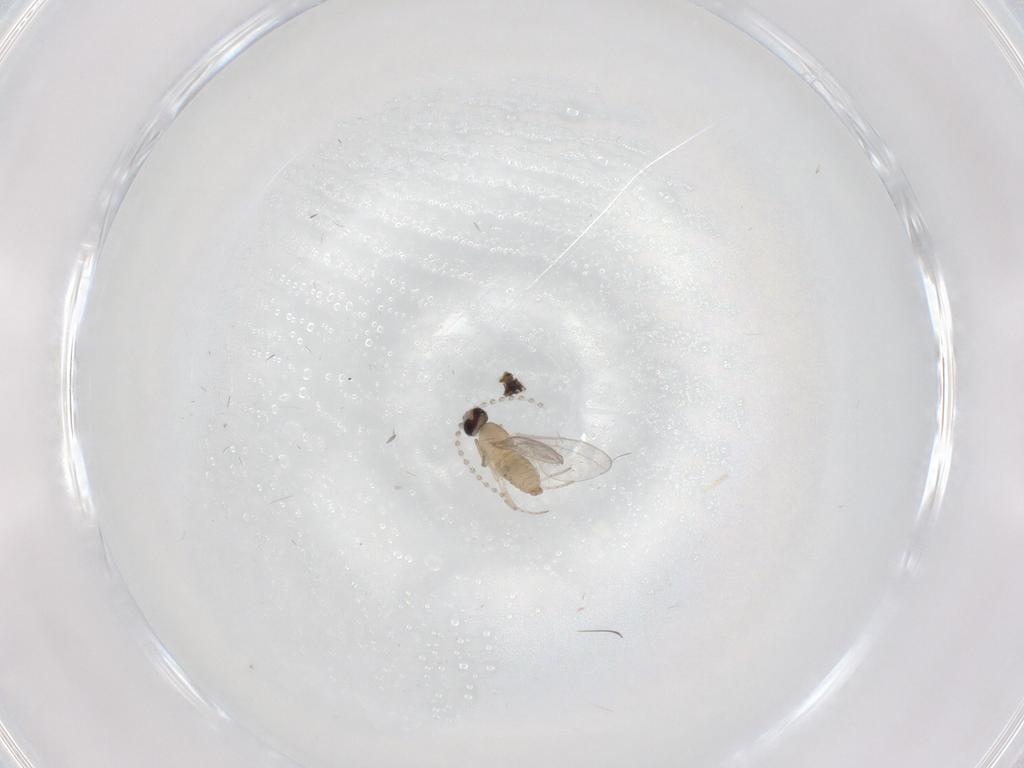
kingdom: Animalia
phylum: Arthropoda
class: Insecta
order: Diptera
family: Cecidomyiidae
